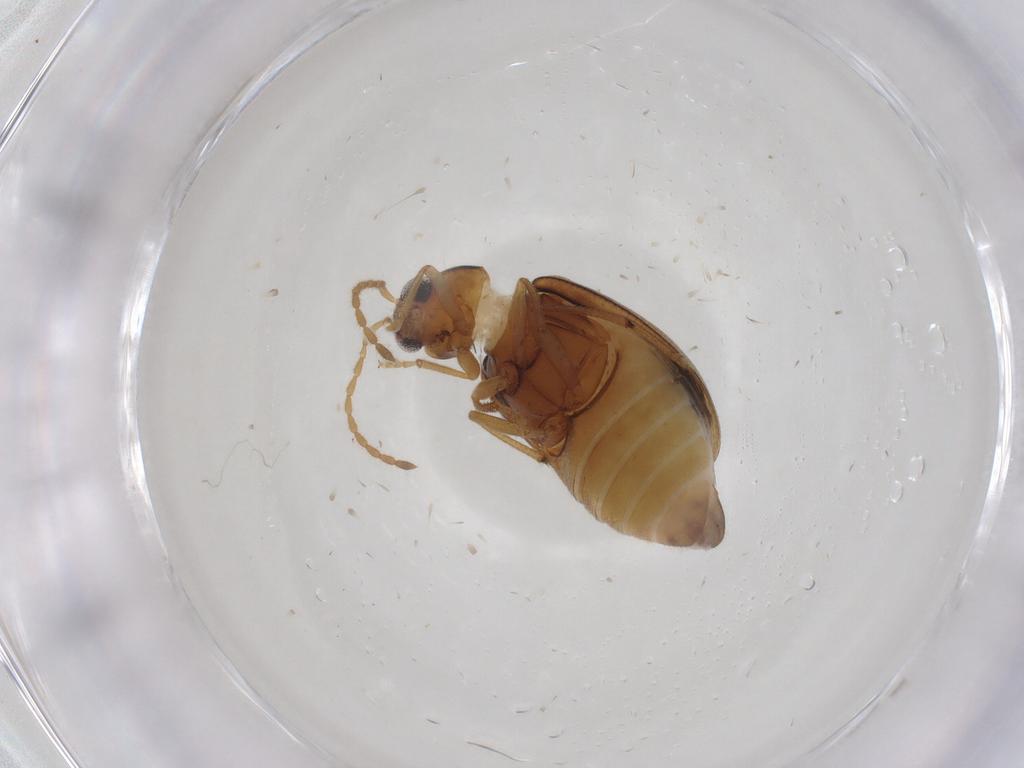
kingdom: Animalia
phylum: Arthropoda
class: Insecta
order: Coleoptera
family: Chrysomelidae
